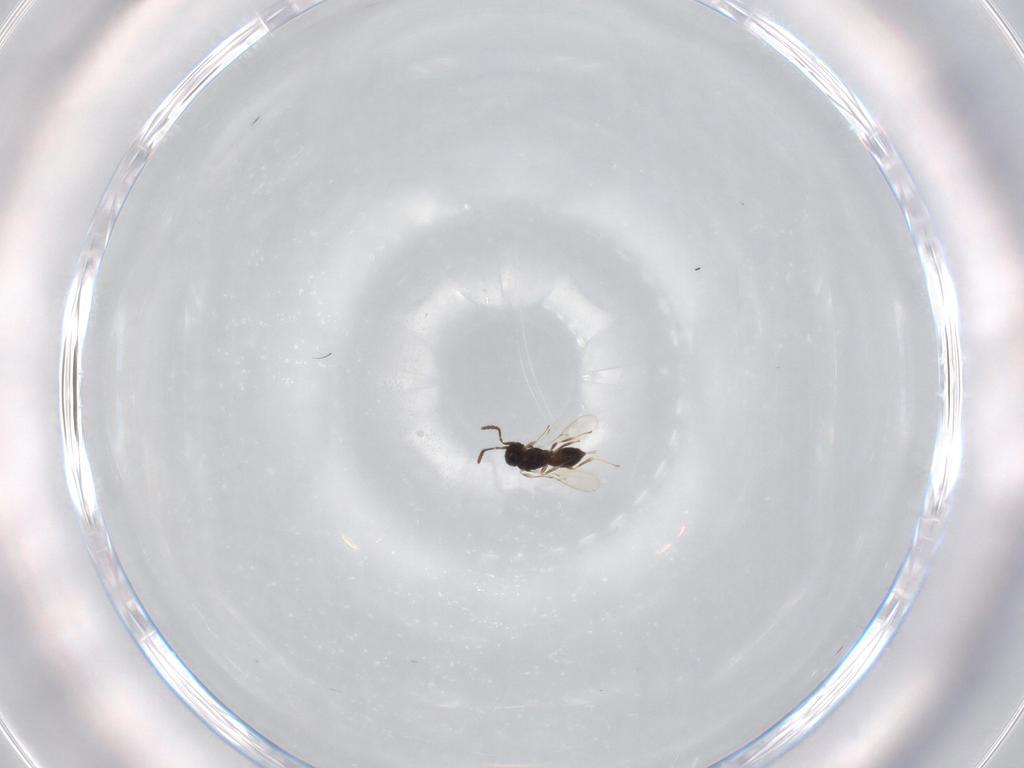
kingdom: Animalia
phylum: Arthropoda
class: Insecta
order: Hymenoptera
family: Scelionidae
